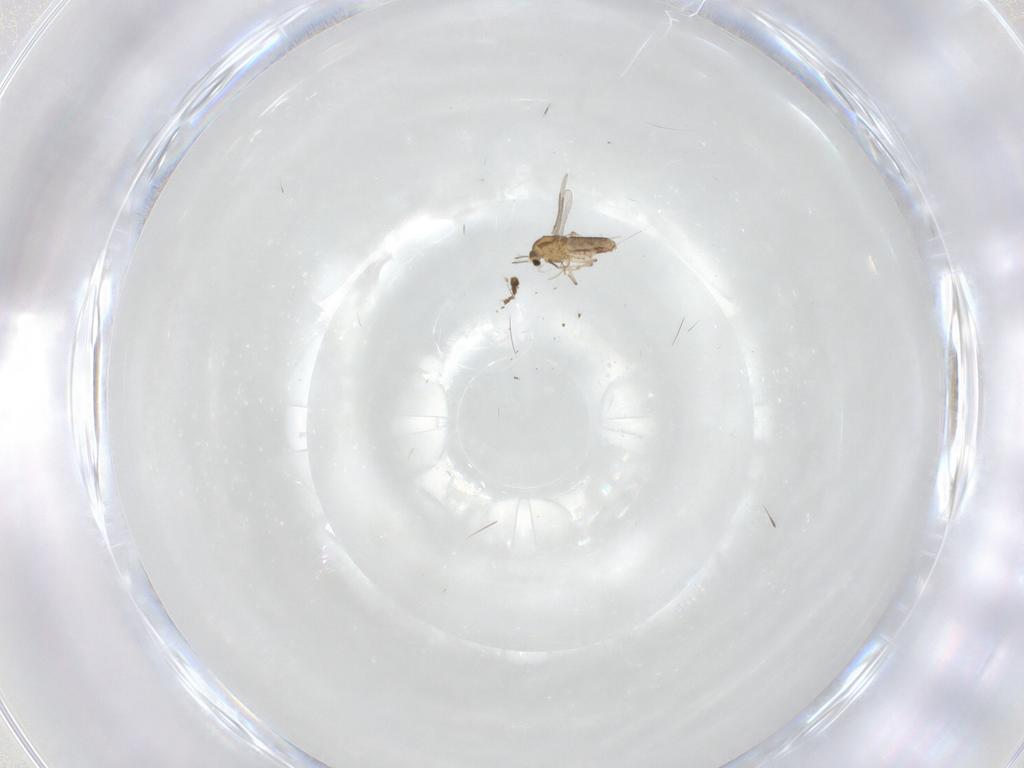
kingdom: Animalia
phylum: Arthropoda
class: Insecta
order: Diptera
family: Chironomidae
